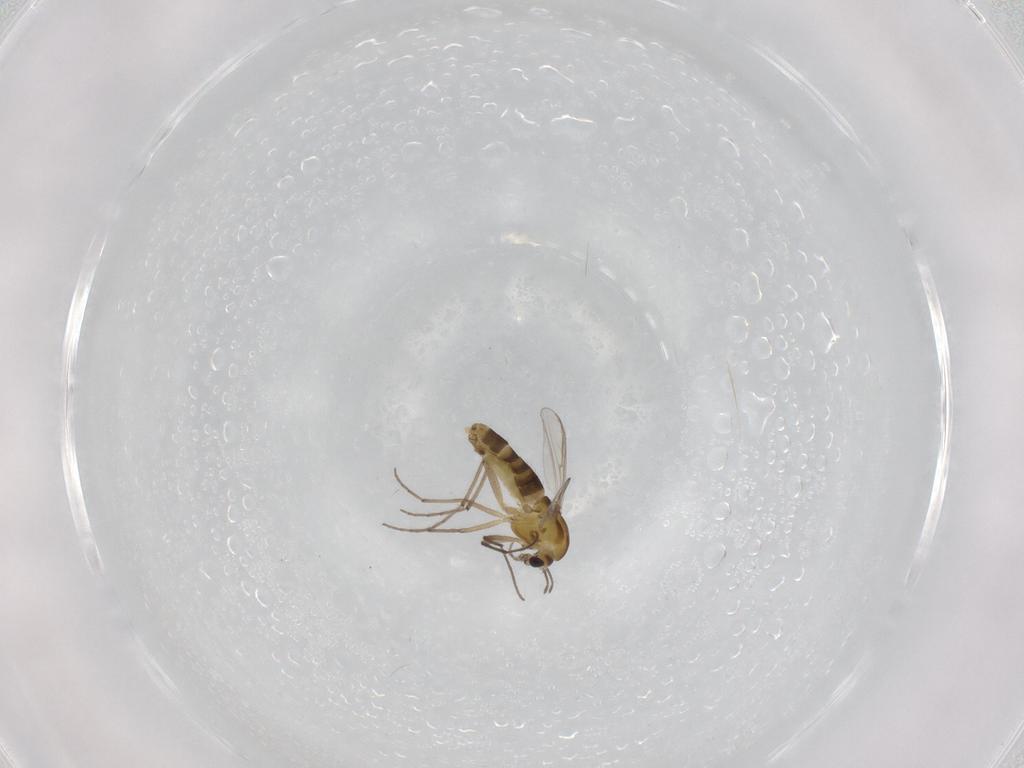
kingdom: Animalia
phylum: Arthropoda
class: Insecta
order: Diptera
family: Chironomidae
